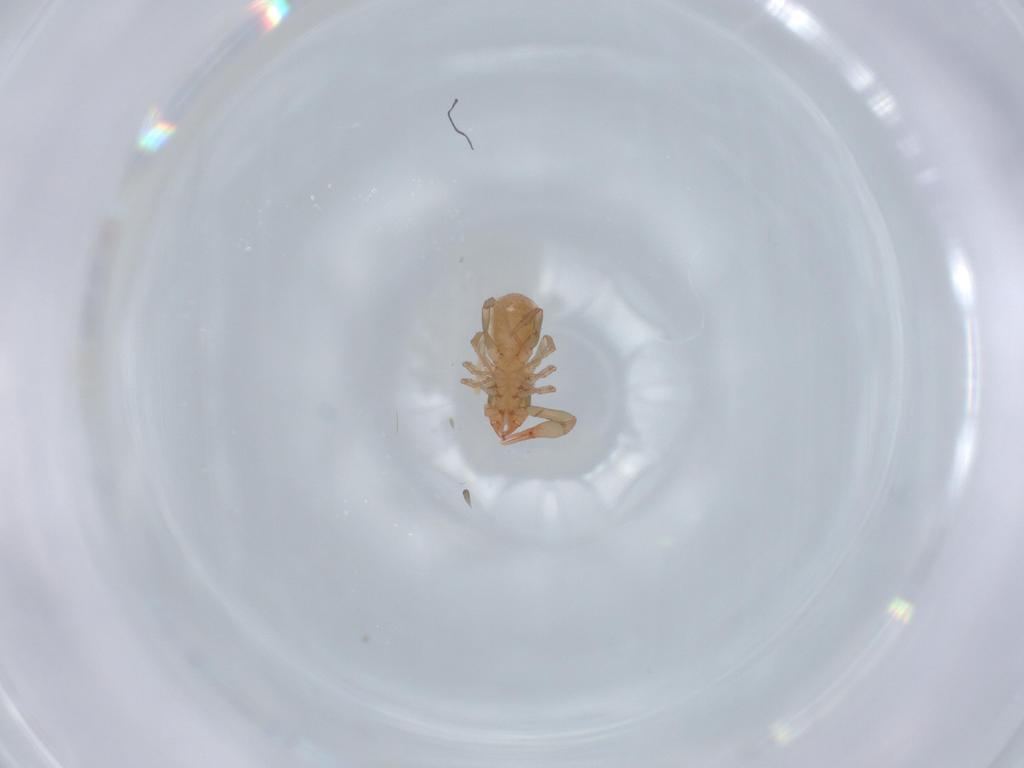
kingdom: Animalia
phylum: Arthropoda
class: Arachnida
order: Pseudoscorpiones
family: Chthoniidae
